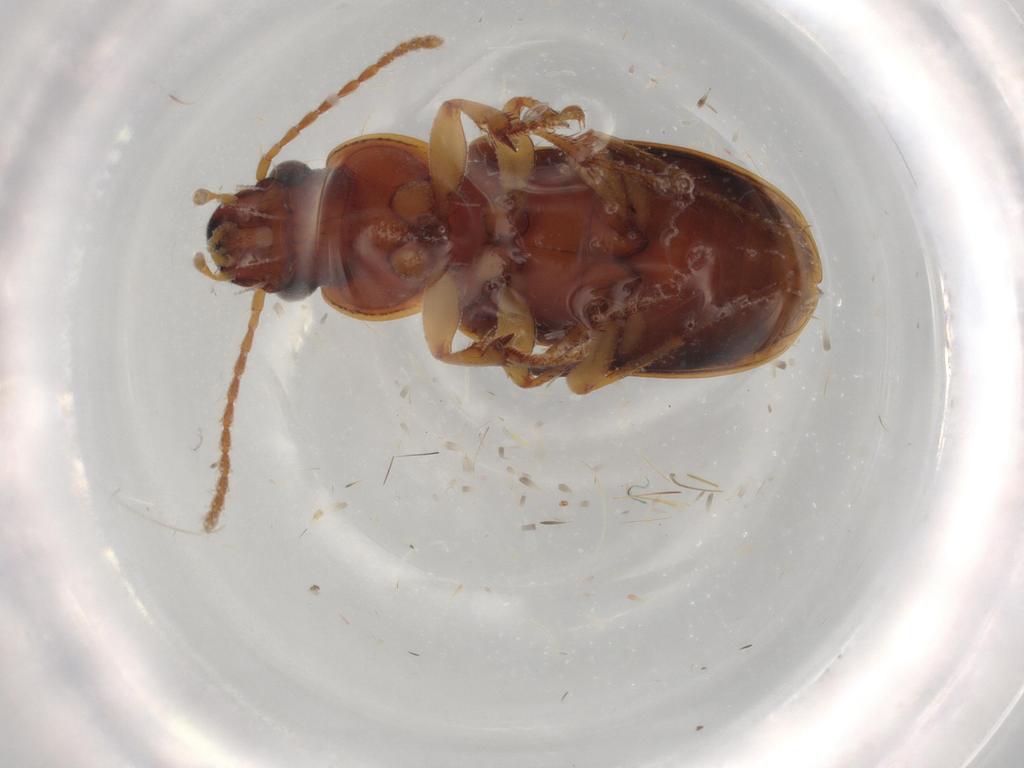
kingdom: Animalia
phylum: Arthropoda
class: Insecta
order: Coleoptera
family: Carabidae
